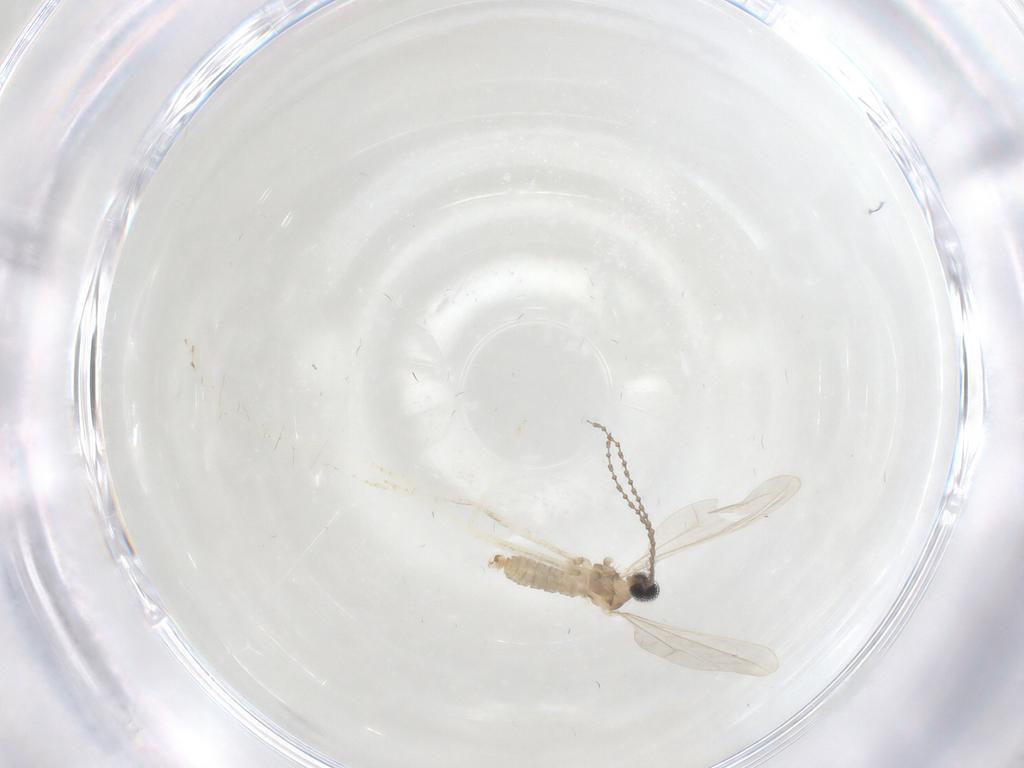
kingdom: Animalia
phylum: Arthropoda
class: Insecta
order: Diptera
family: Cecidomyiidae
